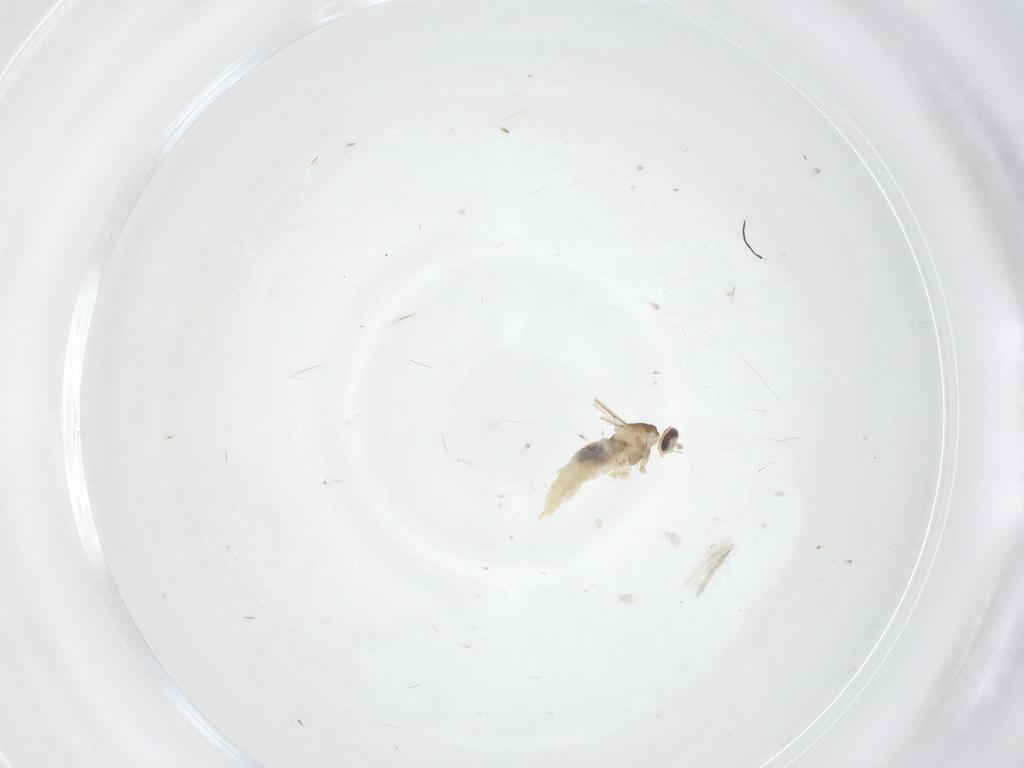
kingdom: Animalia
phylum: Arthropoda
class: Insecta
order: Diptera
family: Cecidomyiidae
